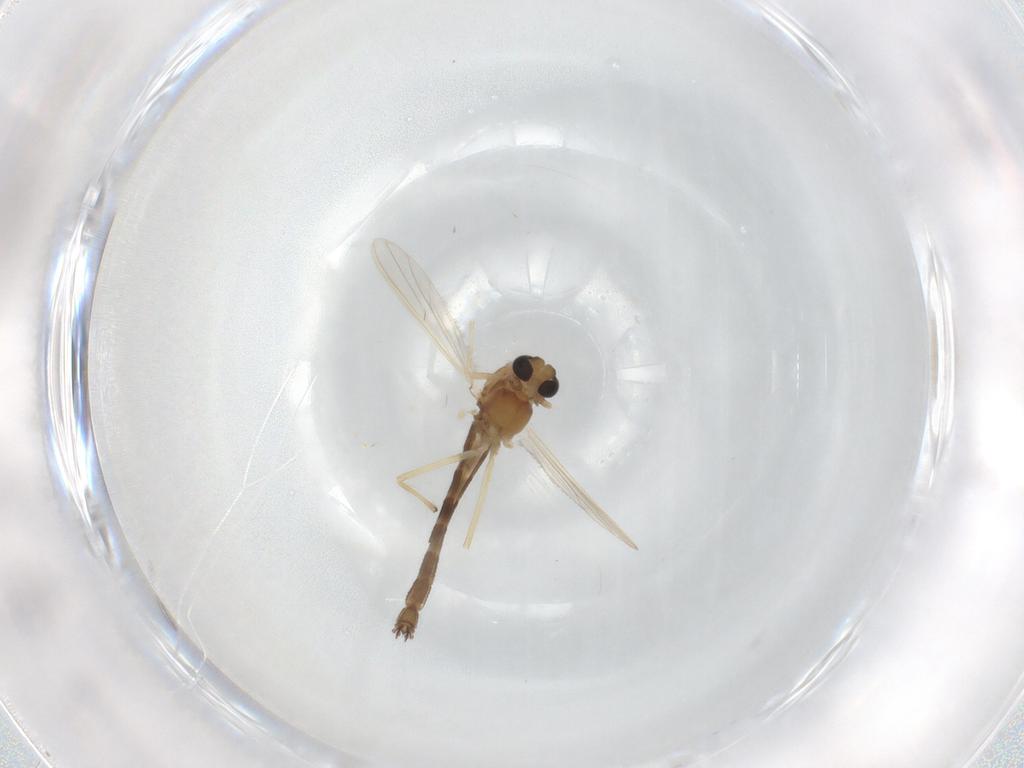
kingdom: Animalia
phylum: Arthropoda
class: Insecta
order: Diptera
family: Chironomidae
